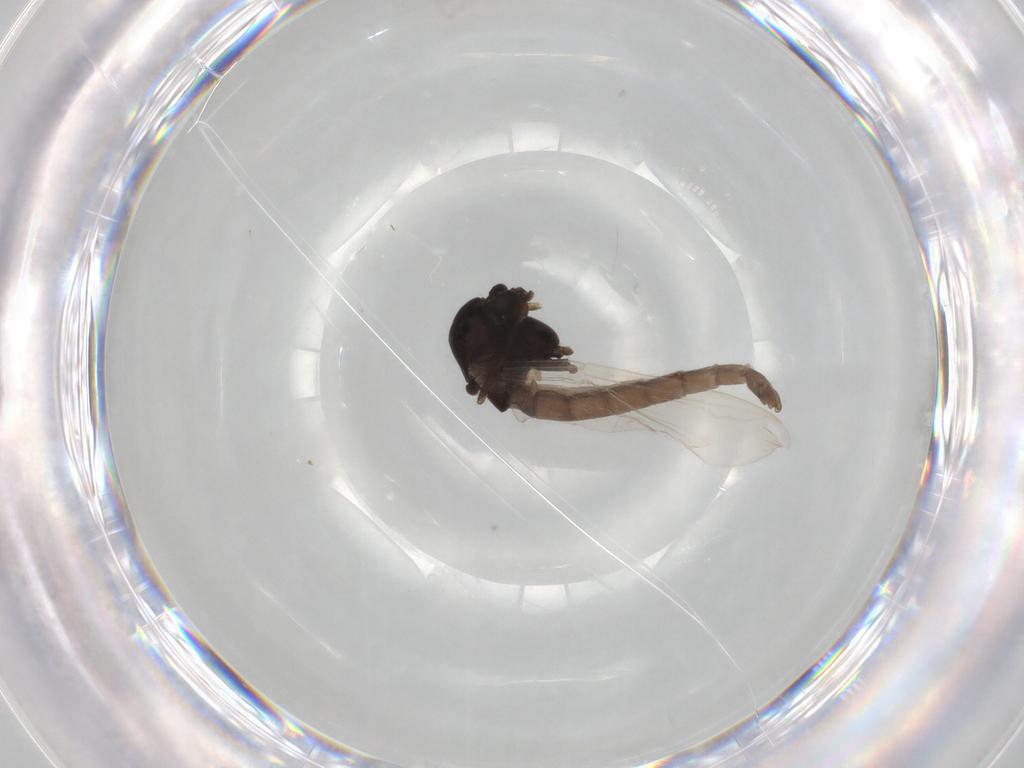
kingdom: Animalia
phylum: Arthropoda
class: Insecta
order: Diptera
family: Chironomidae
